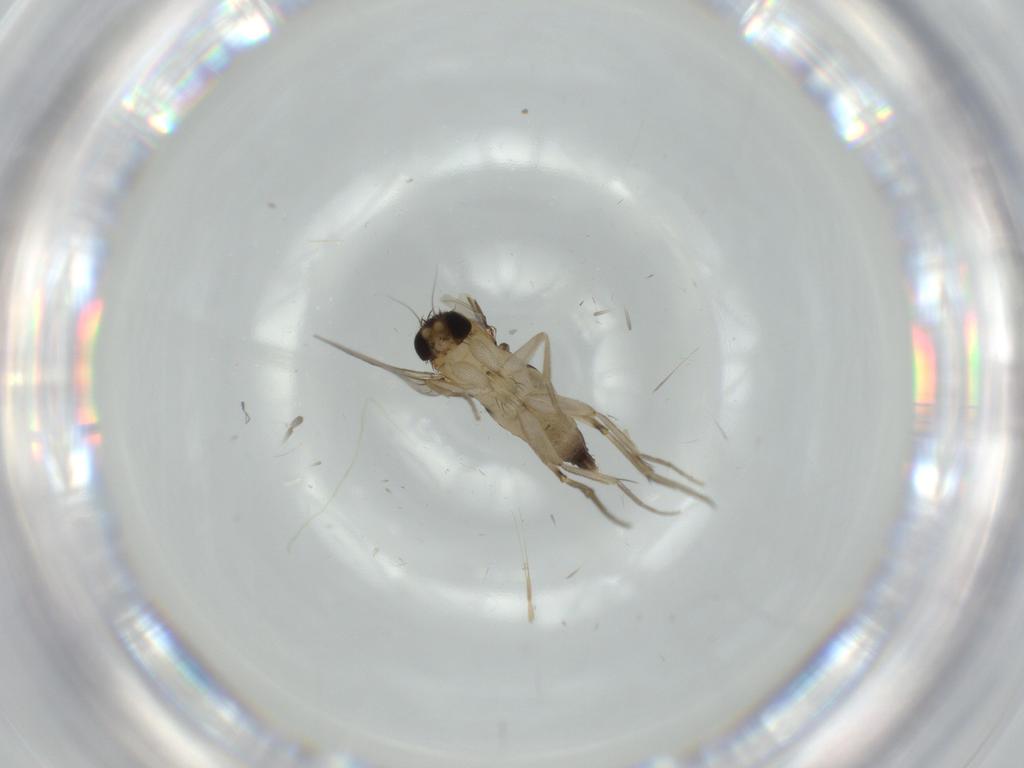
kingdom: Animalia
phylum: Arthropoda
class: Insecta
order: Diptera
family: Phoridae
